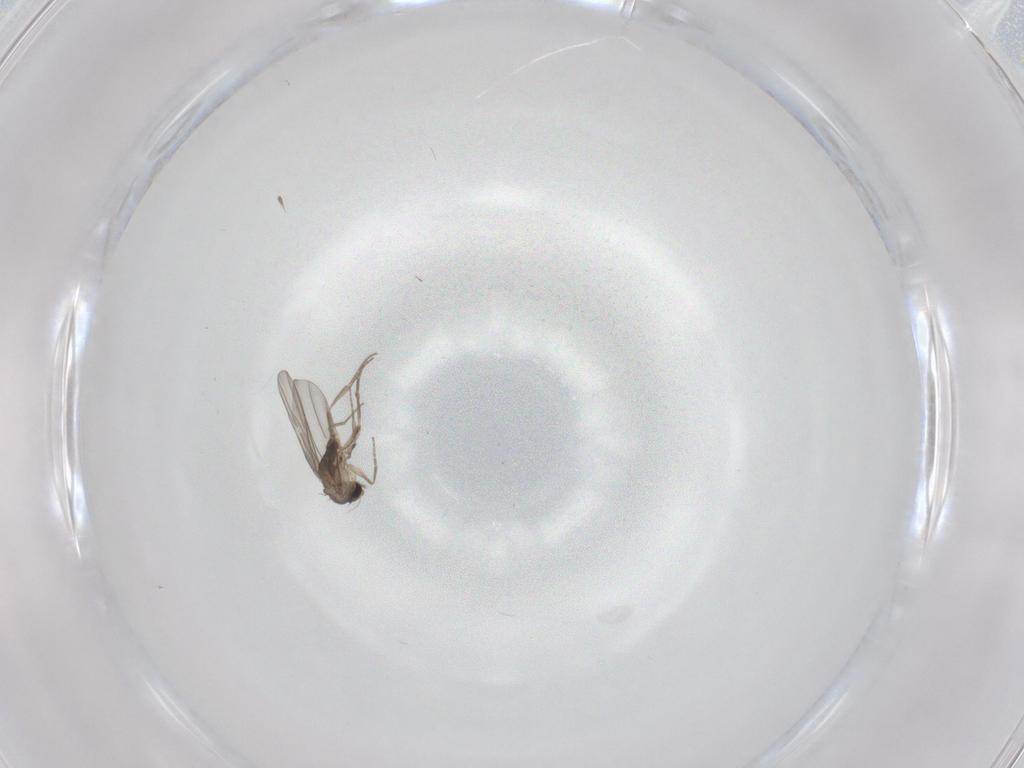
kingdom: Animalia
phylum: Arthropoda
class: Insecta
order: Diptera
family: Phoridae
